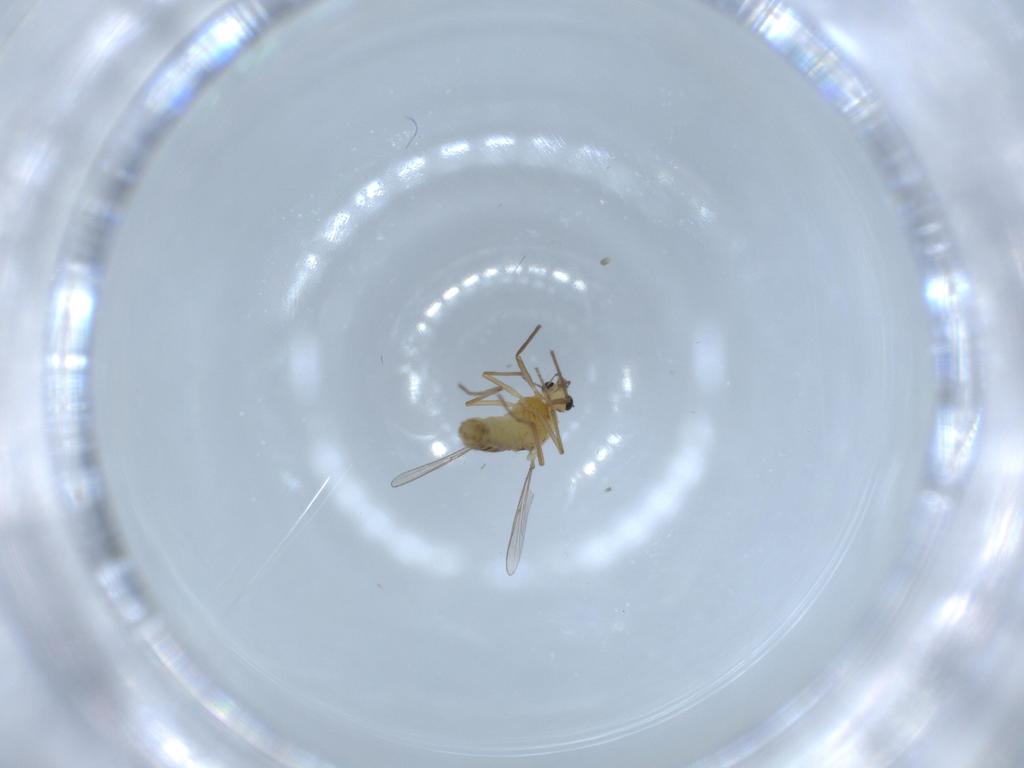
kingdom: Animalia
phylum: Arthropoda
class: Insecta
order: Diptera
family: Chironomidae
